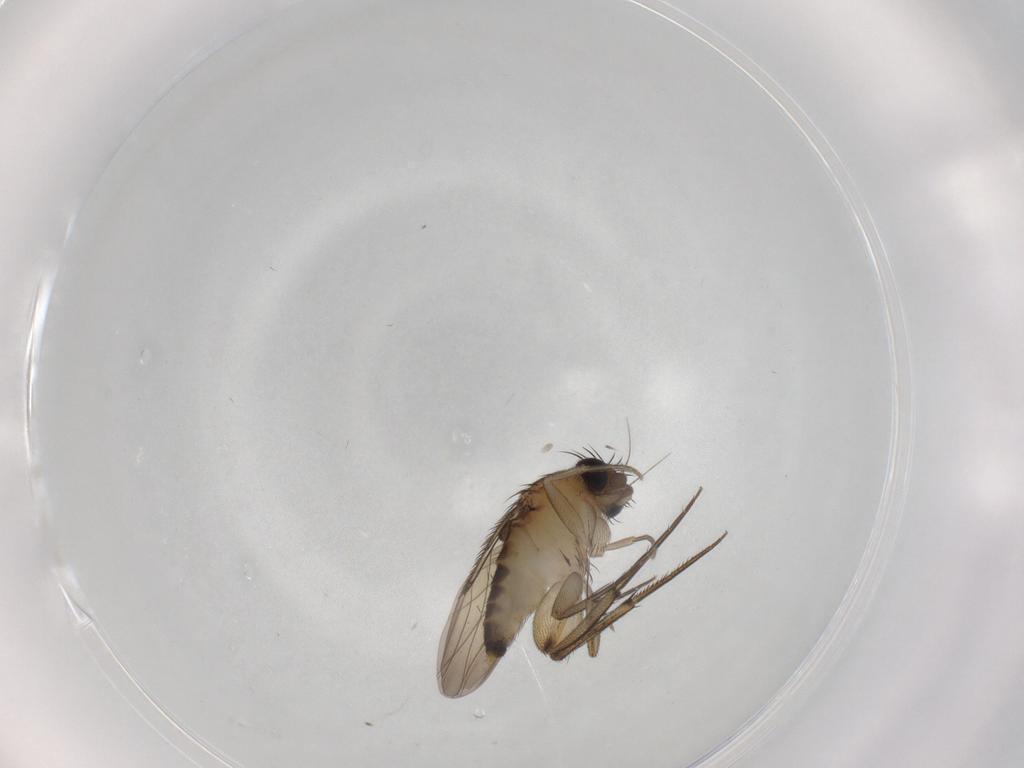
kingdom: Animalia
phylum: Arthropoda
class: Insecta
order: Diptera
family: Phoridae
